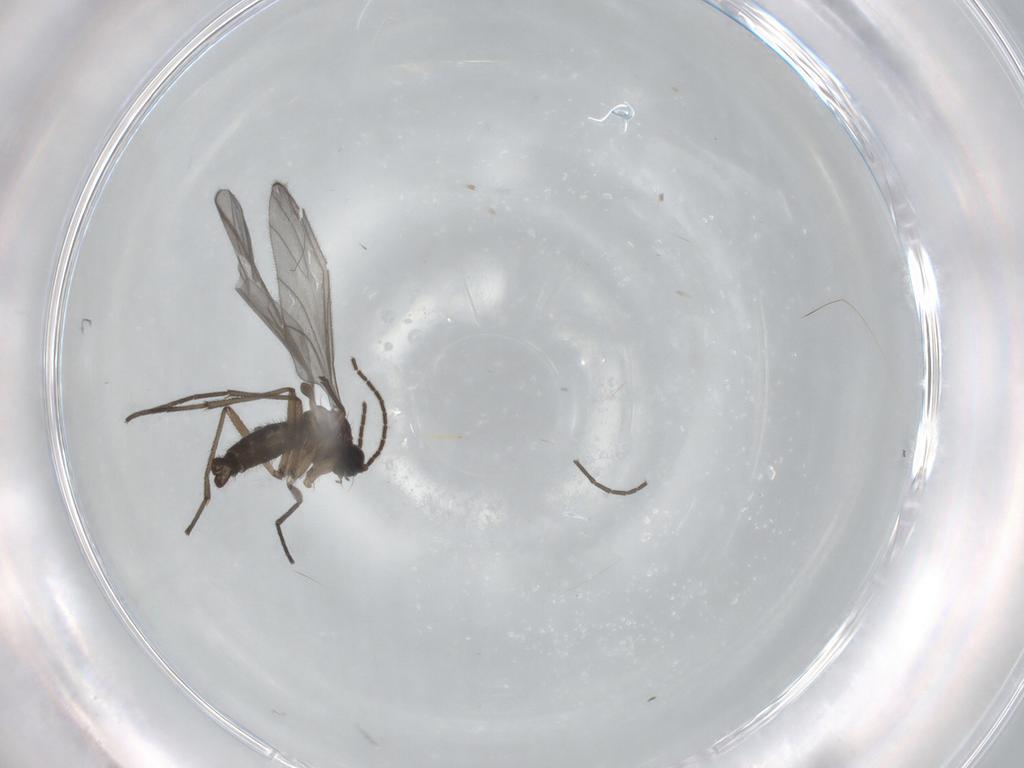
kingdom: Animalia
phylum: Arthropoda
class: Insecta
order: Diptera
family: Sciaridae
